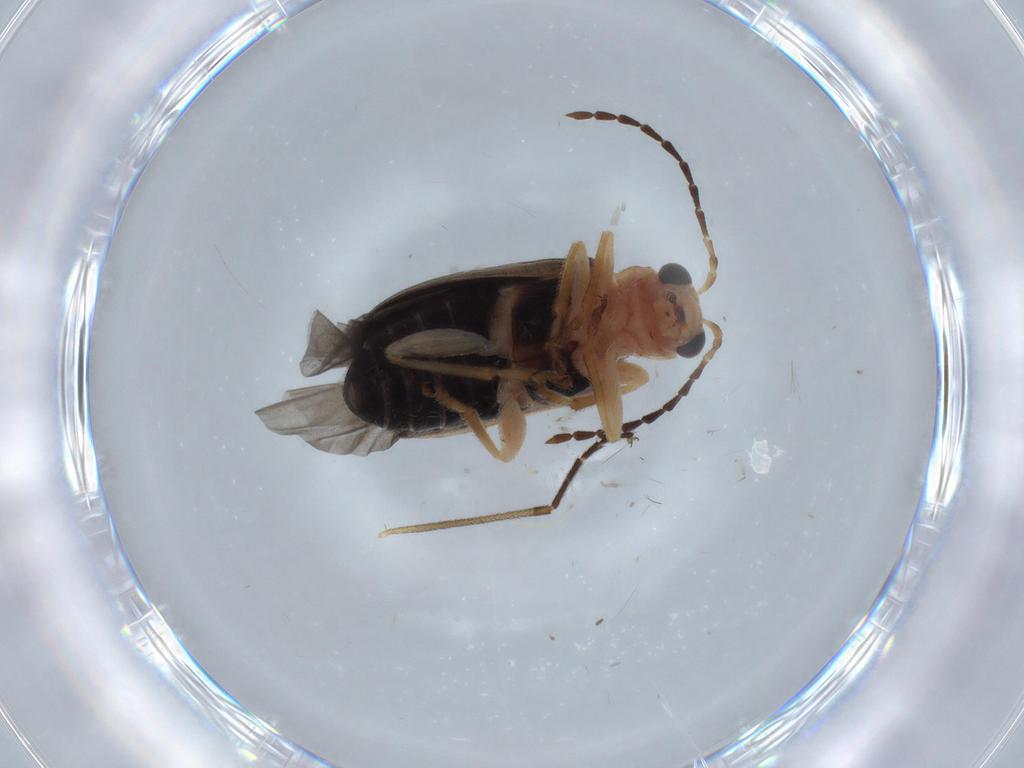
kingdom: Animalia
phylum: Arthropoda
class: Insecta
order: Coleoptera
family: Chrysomelidae
